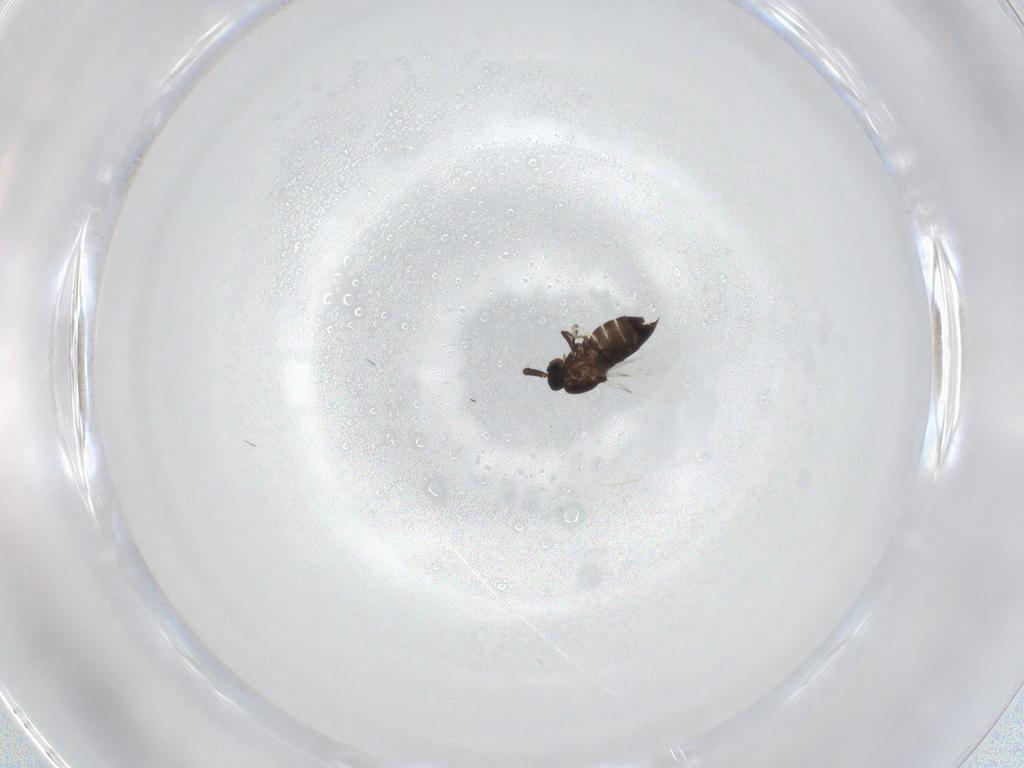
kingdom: Animalia
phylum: Arthropoda
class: Insecta
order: Diptera
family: Scatopsidae
